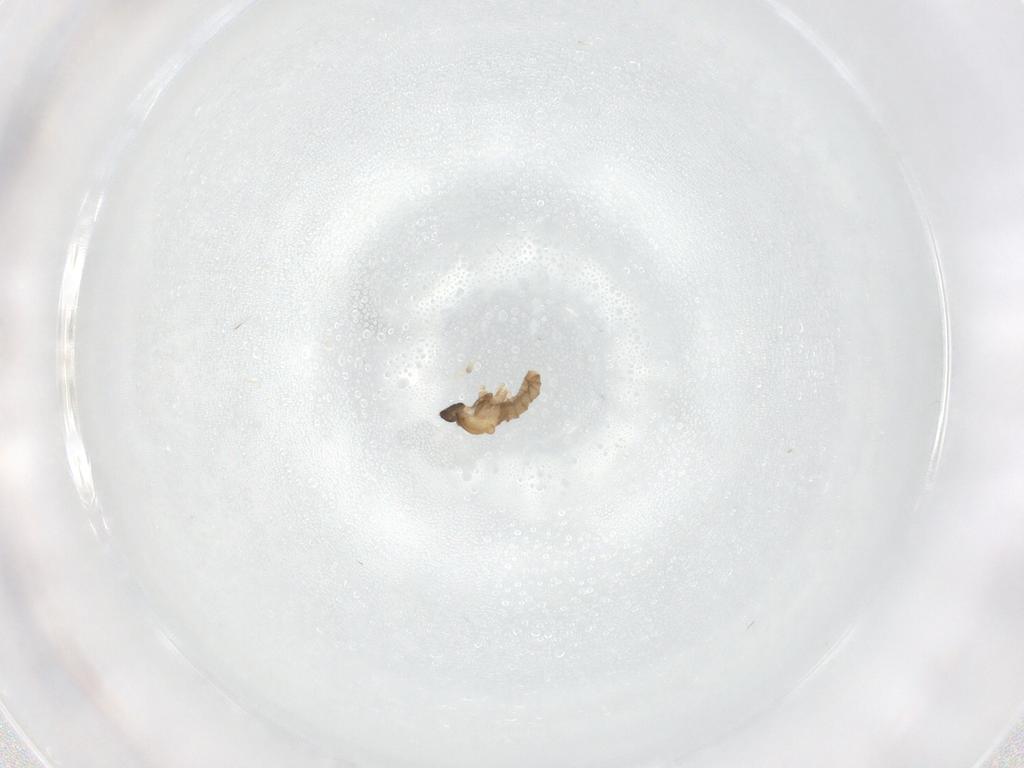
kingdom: Animalia
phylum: Arthropoda
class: Insecta
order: Diptera
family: Cecidomyiidae
